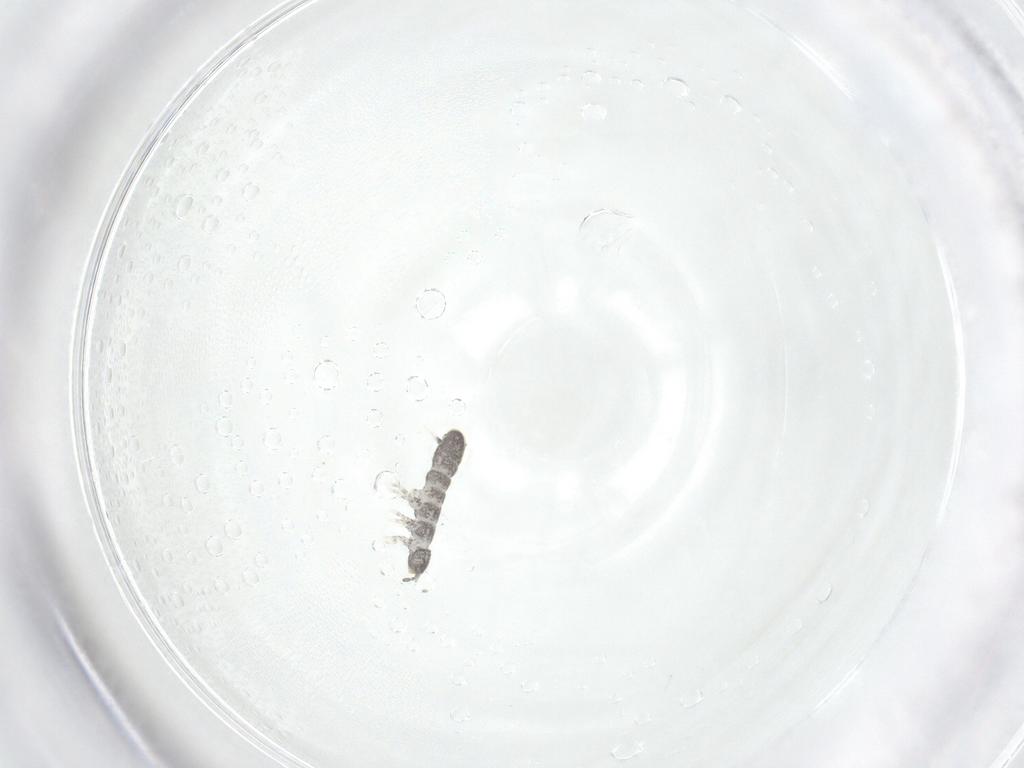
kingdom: Animalia
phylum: Arthropoda
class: Collembola
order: Entomobryomorpha
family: Isotomidae
